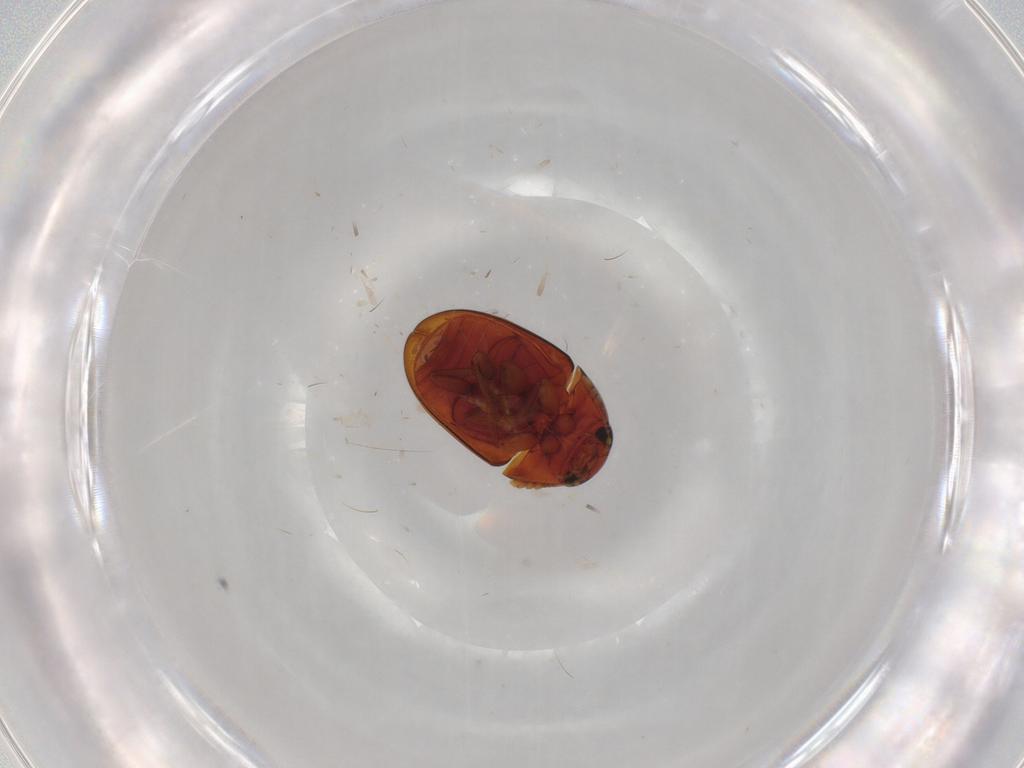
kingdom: Animalia
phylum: Arthropoda
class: Insecta
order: Coleoptera
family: Phalacridae
